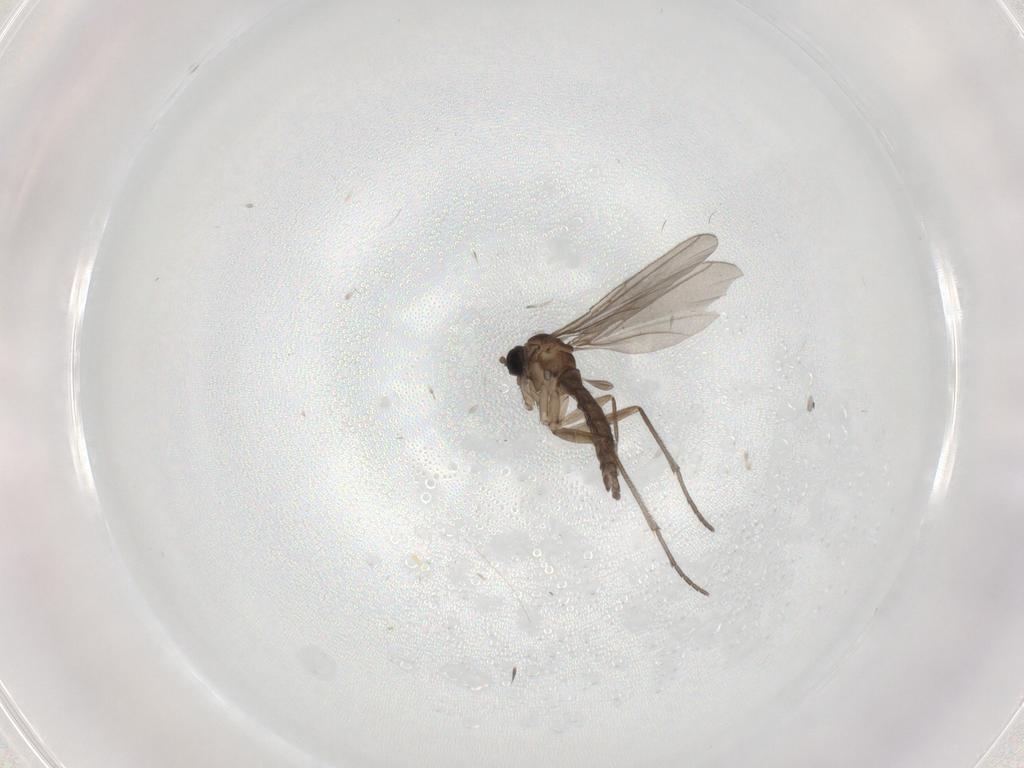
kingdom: Animalia
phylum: Arthropoda
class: Insecta
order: Diptera
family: Sciaridae
